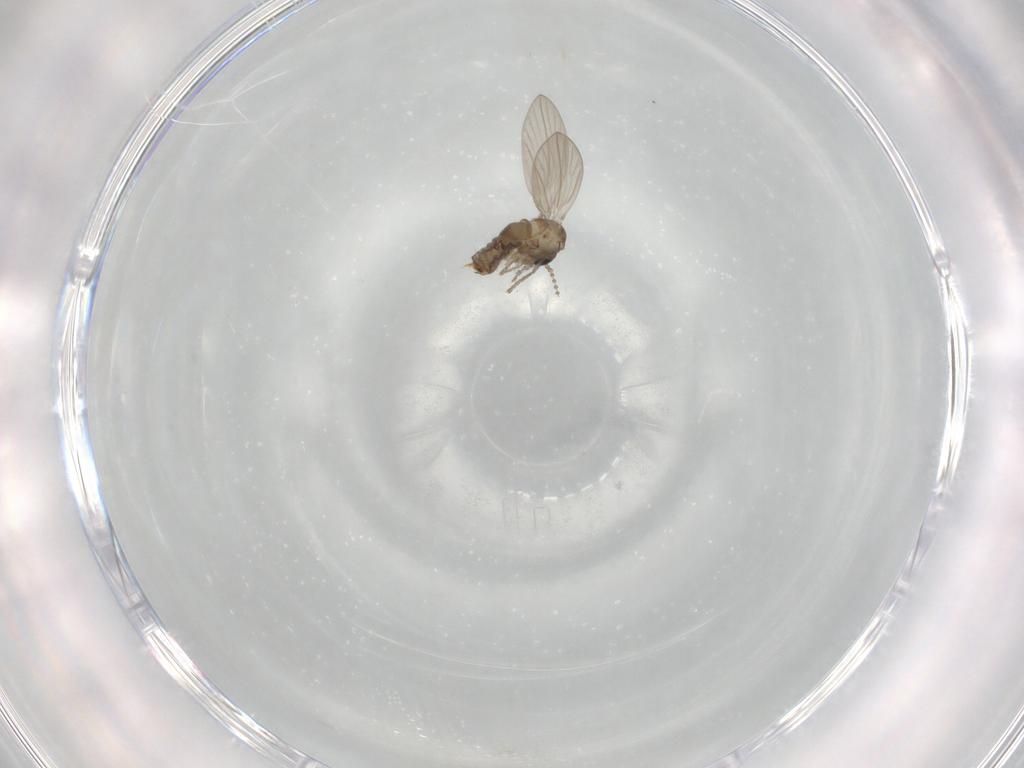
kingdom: Animalia
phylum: Arthropoda
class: Insecta
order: Diptera
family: Psychodidae
